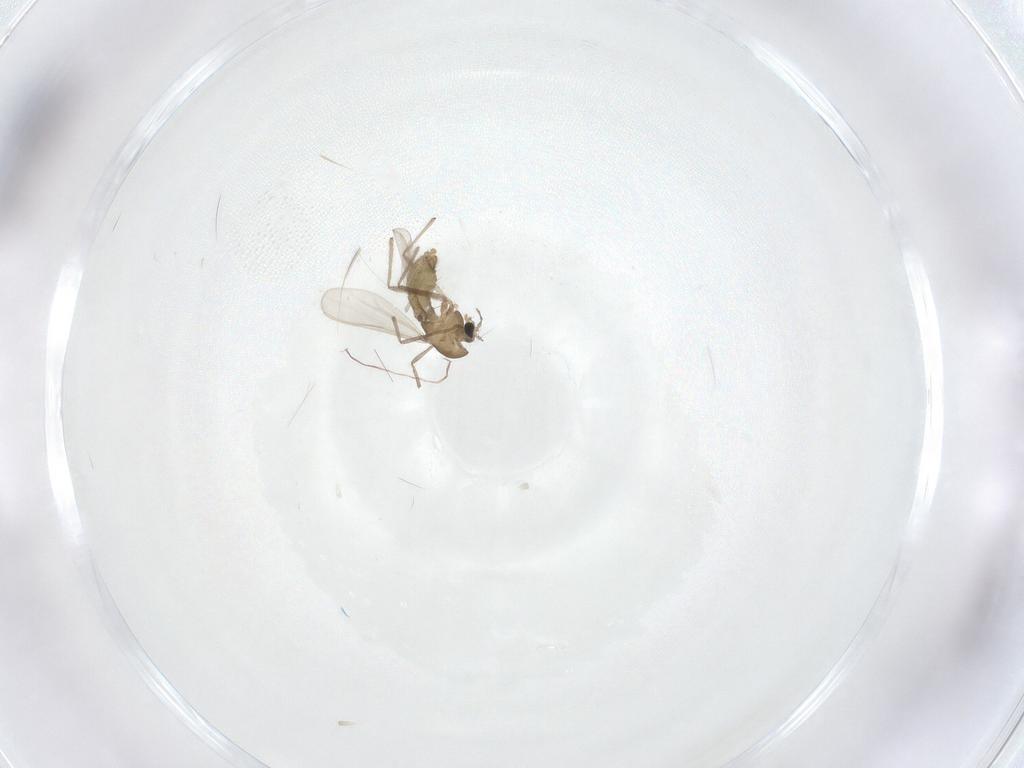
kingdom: Animalia
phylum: Arthropoda
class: Insecta
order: Diptera
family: Chironomidae
